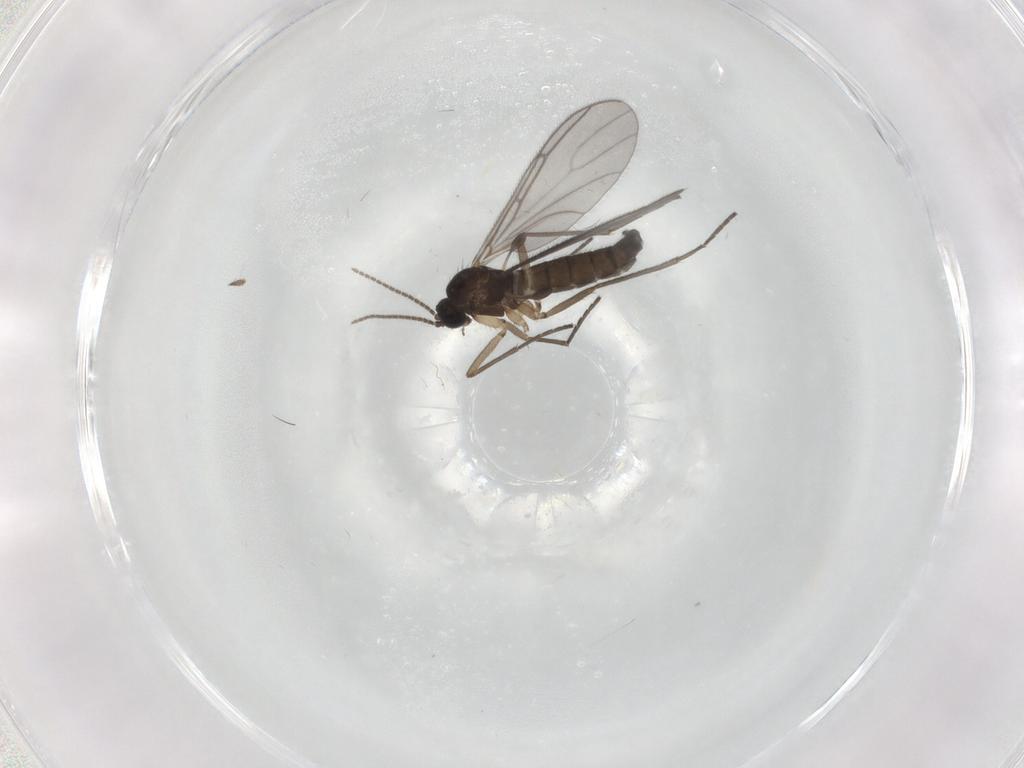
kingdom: Animalia
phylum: Arthropoda
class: Insecta
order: Diptera
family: Sciaridae
